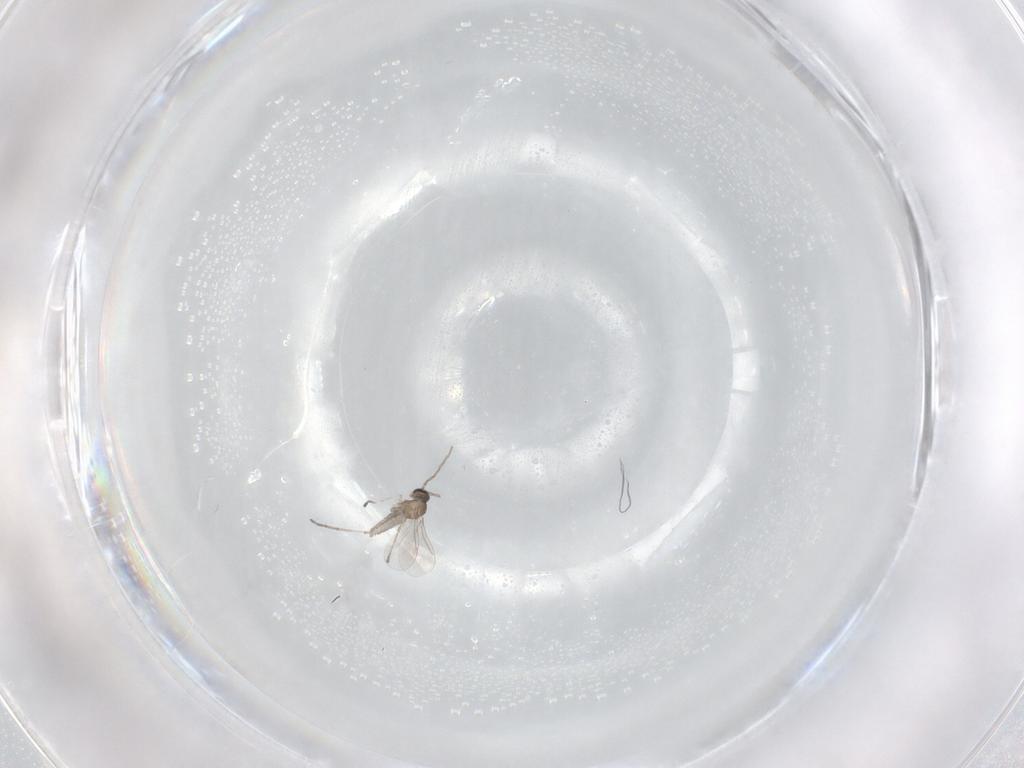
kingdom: Animalia
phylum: Arthropoda
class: Insecta
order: Diptera
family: Cecidomyiidae
